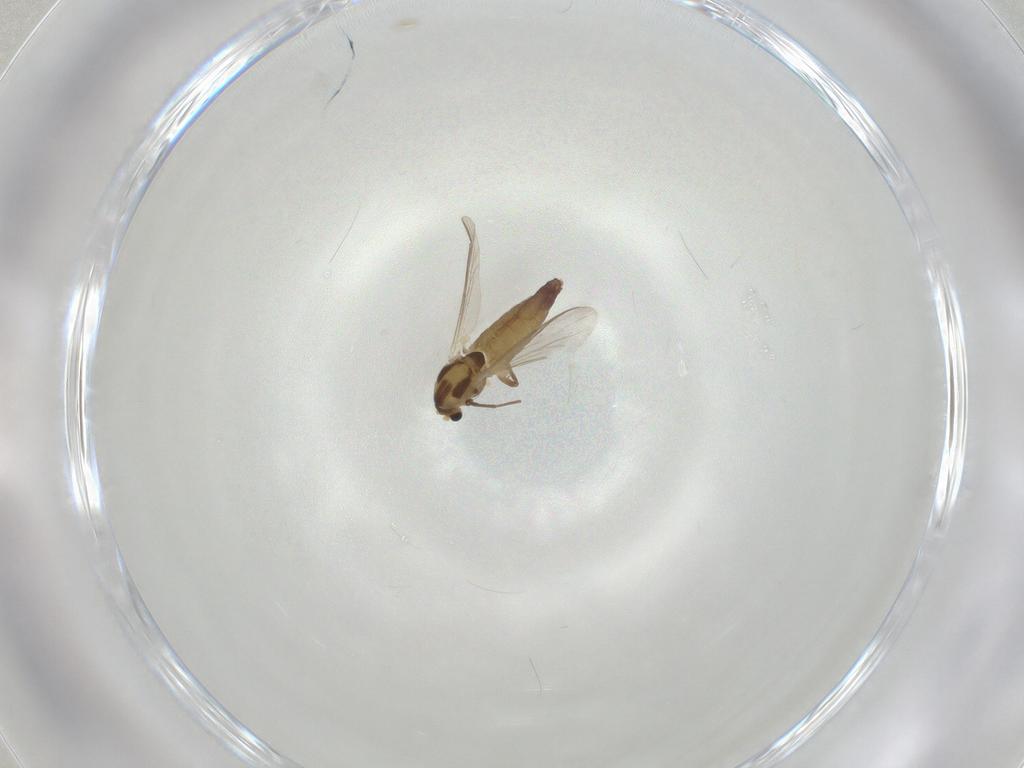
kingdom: Animalia
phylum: Arthropoda
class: Insecta
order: Diptera
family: Chironomidae
